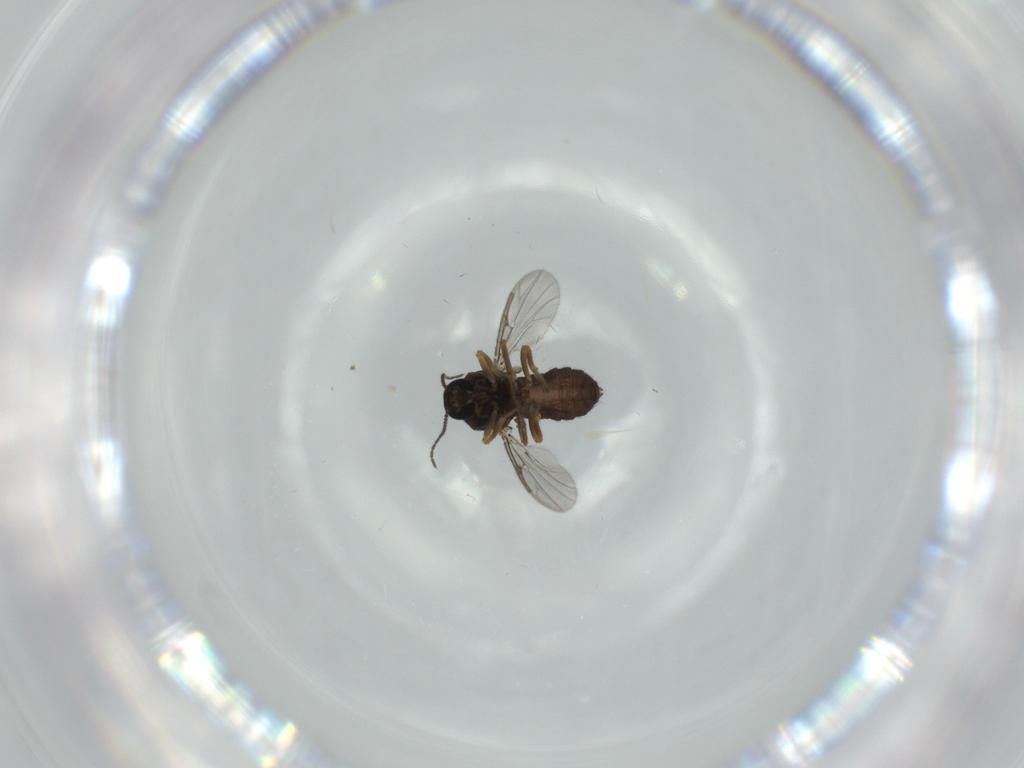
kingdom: Animalia
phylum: Arthropoda
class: Insecta
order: Diptera
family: Ceratopogonidae
